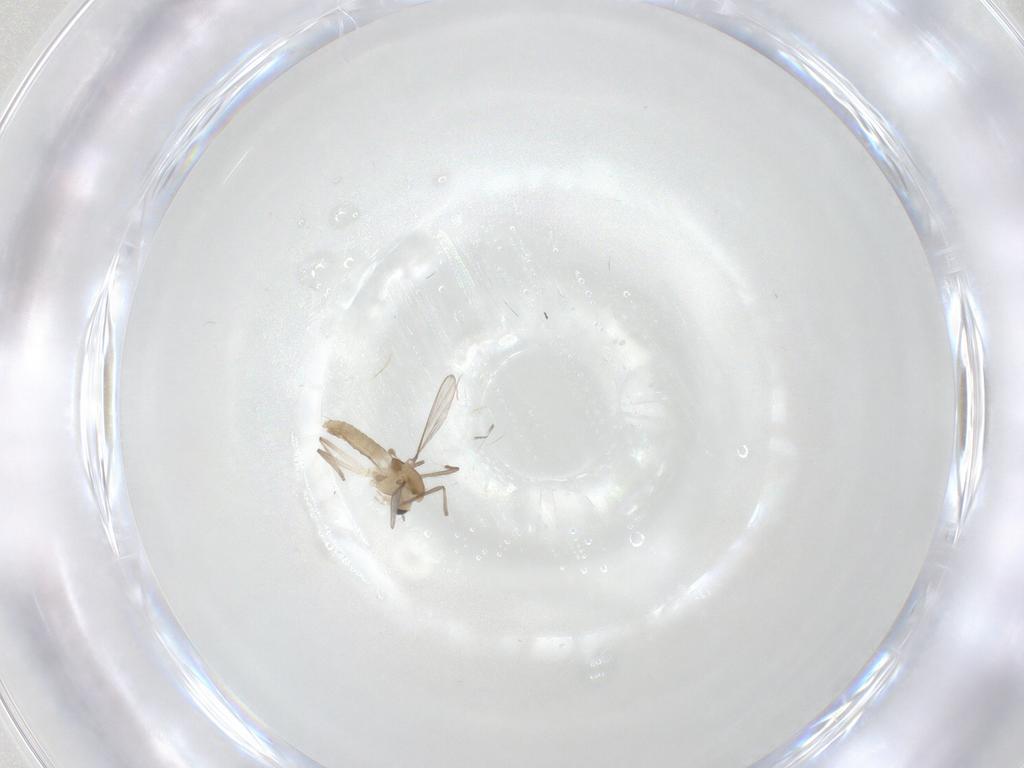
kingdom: Animalia
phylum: Arthropoda
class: Insecta
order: Diptera
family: Chironomidae
